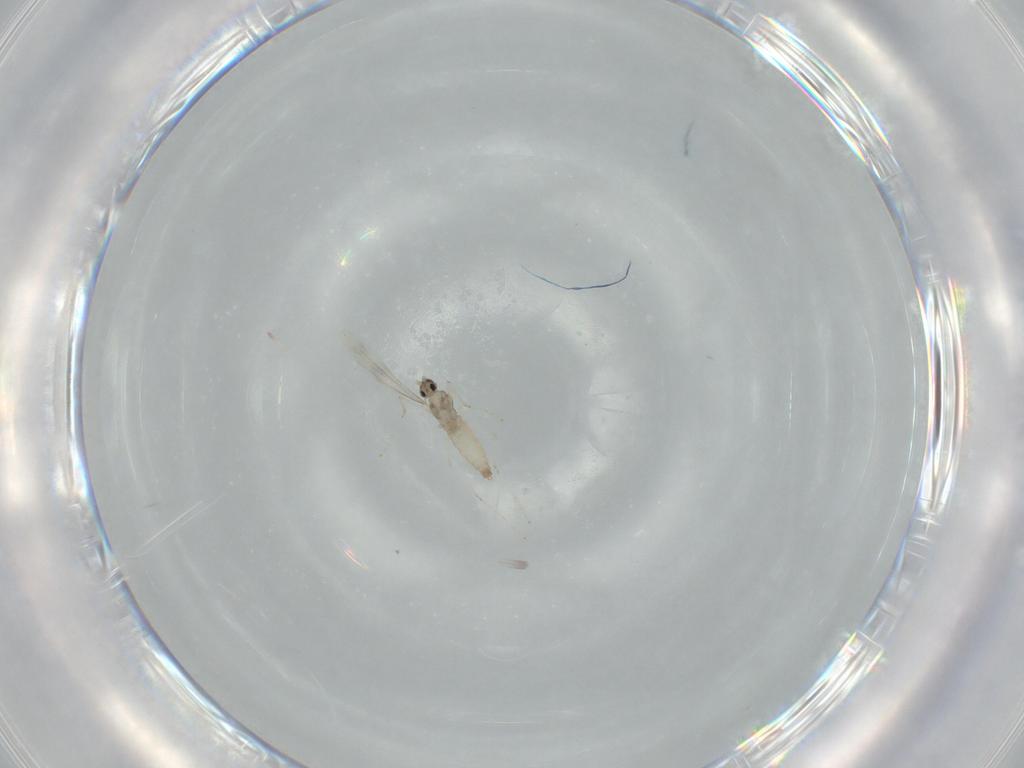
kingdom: Animalia
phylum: Arthropoda
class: Insecta
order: Diptera
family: Cecidomyiidae
